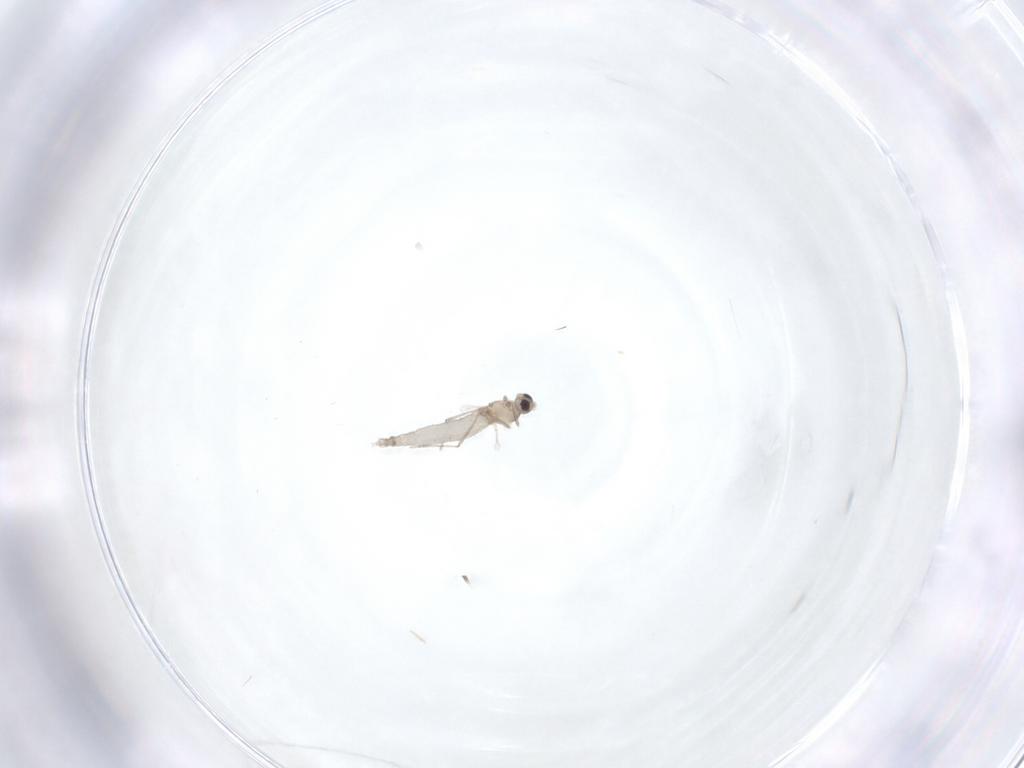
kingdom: Animalia
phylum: Arthropoda
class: Insecta
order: Diptera
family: Cecidomyiidae
